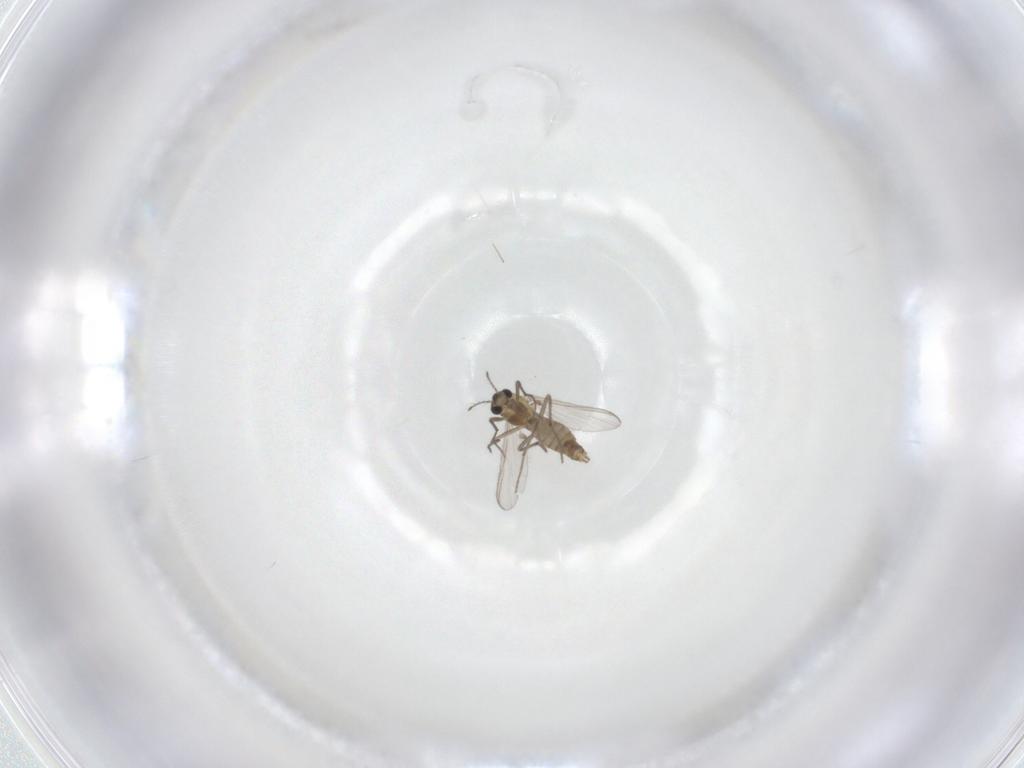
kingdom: Animalia
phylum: Arthropoda
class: Insecta
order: Diptera
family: Chironomidae
